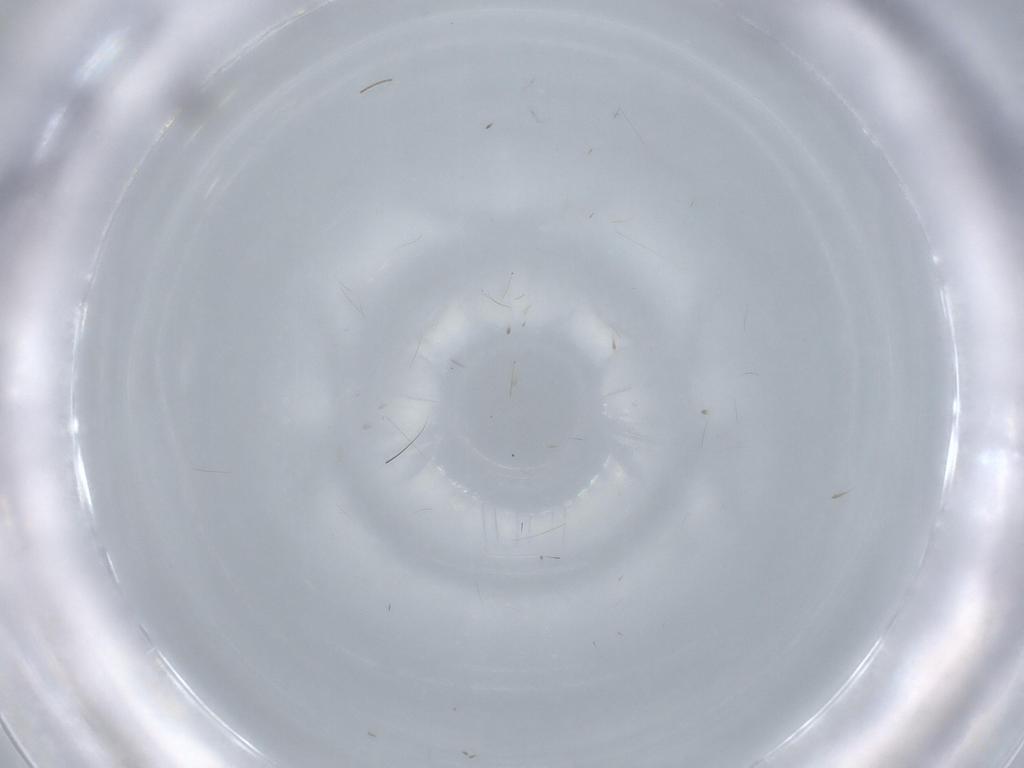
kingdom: Animalia
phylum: Arthropoda
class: Insecta
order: Diptera
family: Cecidomyiidae
